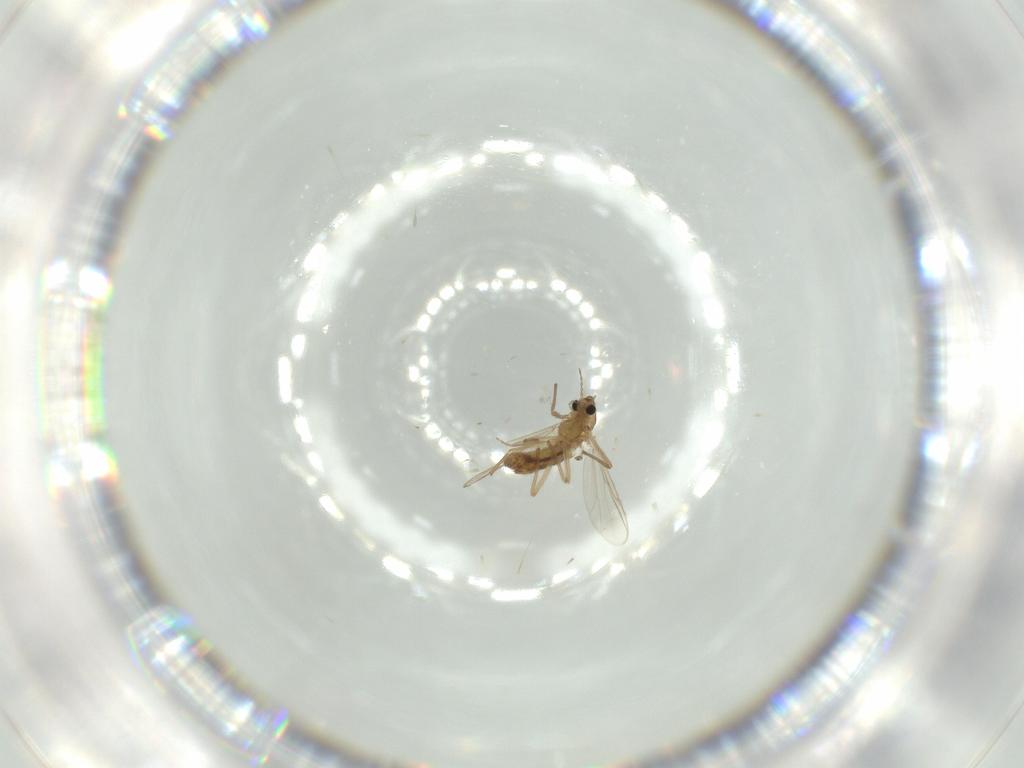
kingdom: Animalia
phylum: Arthropoda
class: Insecta
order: Diptera
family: Chironomidae
